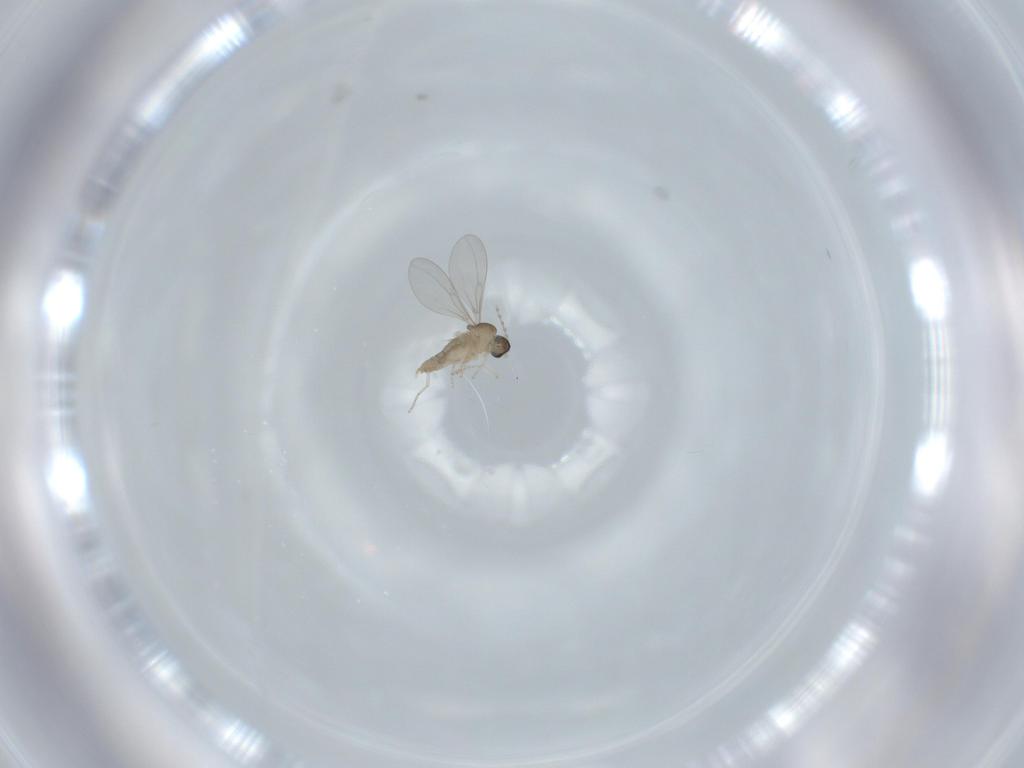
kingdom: Animalia
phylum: Arthropoda
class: Insecta
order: Diptera
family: Cecidomyiidae
